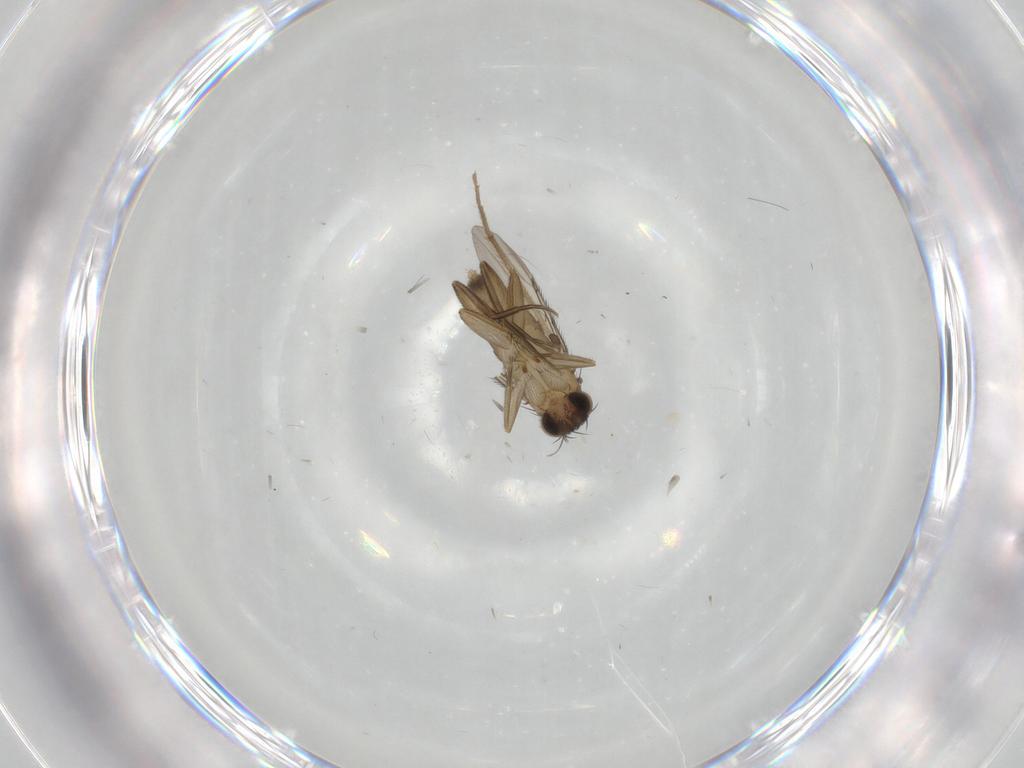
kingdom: Animalia
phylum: Arthropoda
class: Insecta
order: Diptera
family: Phoridae
